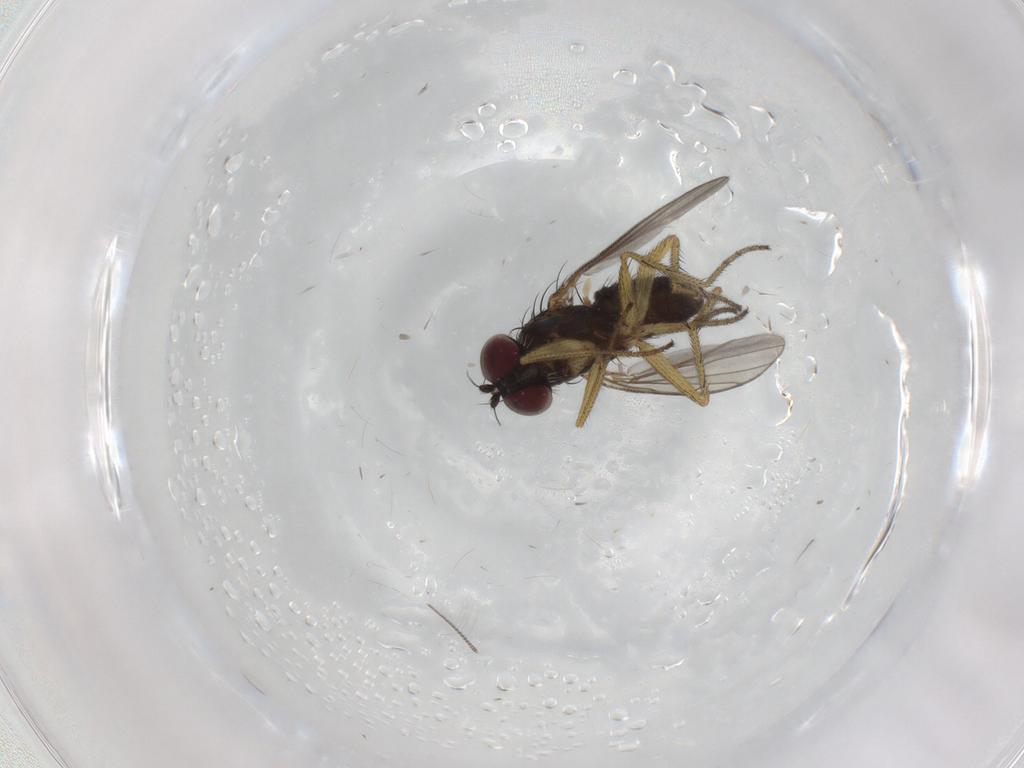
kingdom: Animalia
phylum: Arthropoda
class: Insecta
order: Diptera
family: Dolichopodidae
